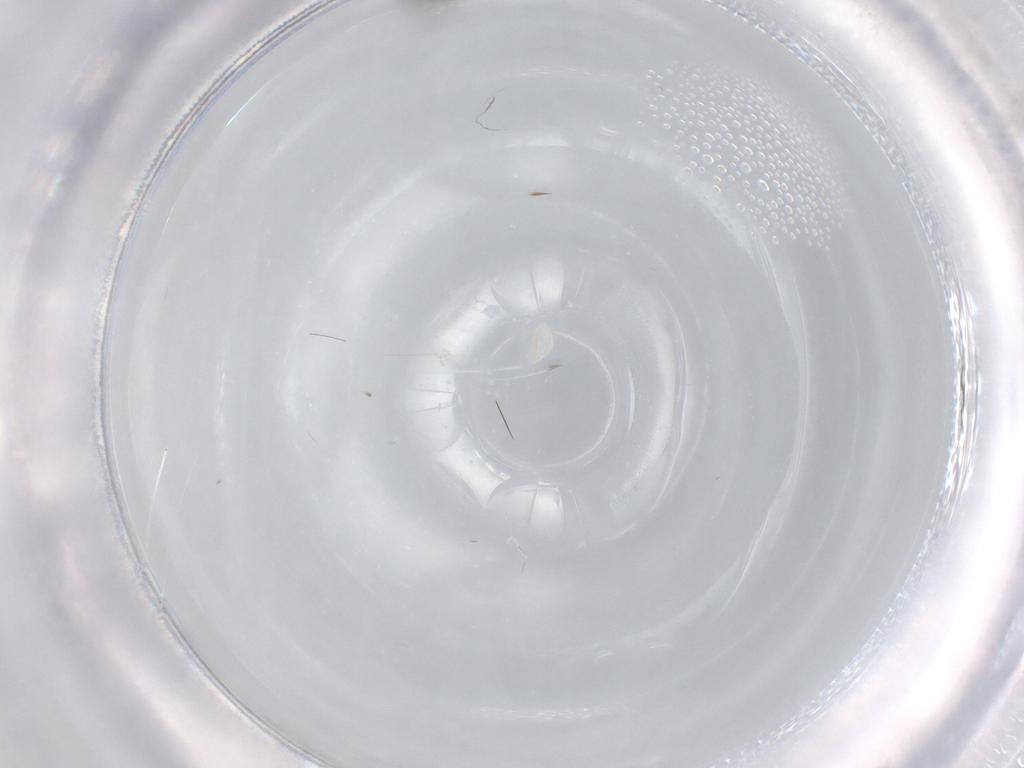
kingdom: Animalia
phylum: Arthropoda
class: Insecta
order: Diptera
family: Chironomidae
